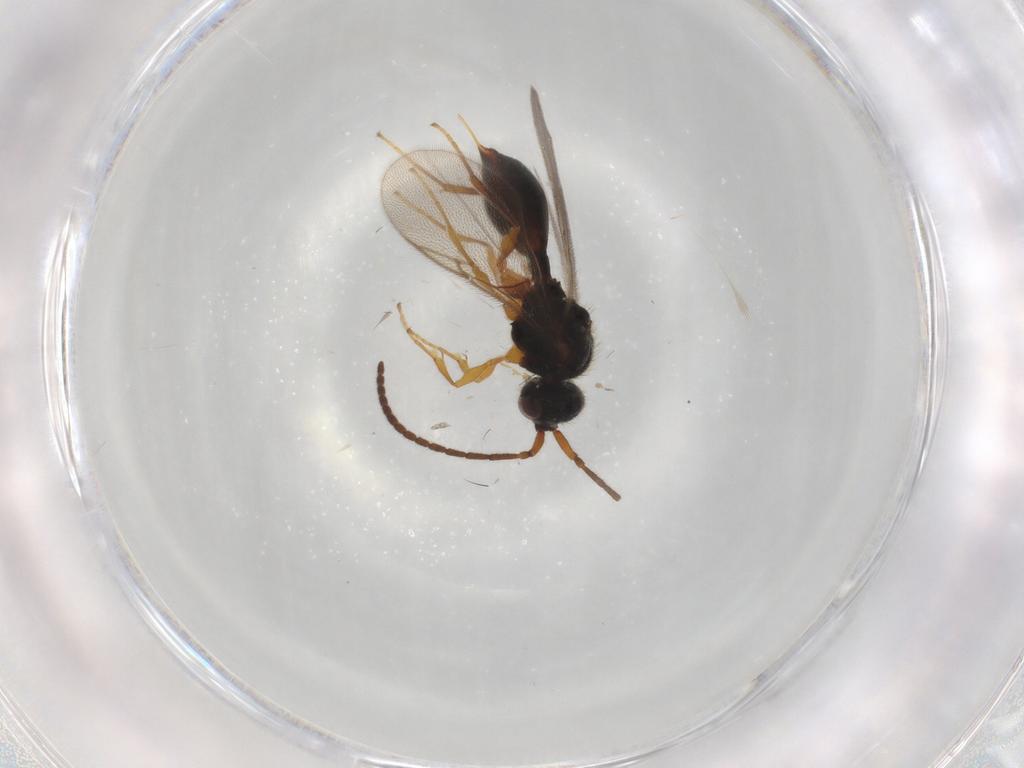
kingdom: Animalia
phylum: Arthropoda
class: Insecta
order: Hymenoptera
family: Eulophidae
